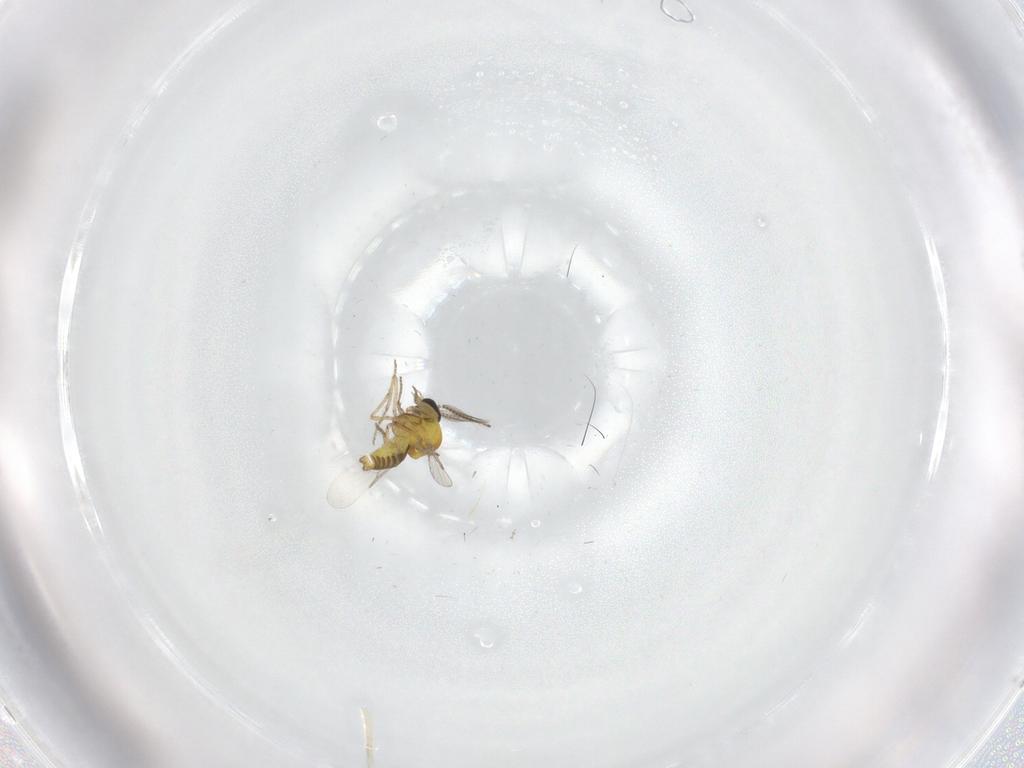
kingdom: Animalia
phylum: Arthropoda
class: Insecta
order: Diptera
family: Ceratopogonidae
